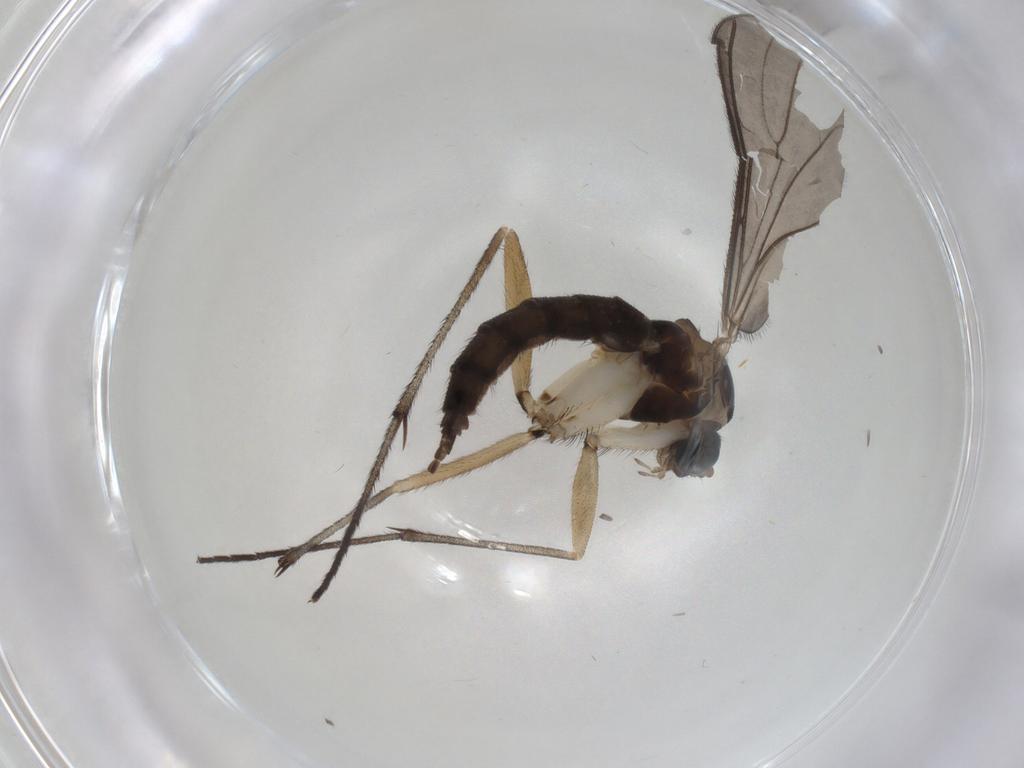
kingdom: Animalia
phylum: Arthropoda
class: Insecta
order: Diptera
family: Sciaridae
